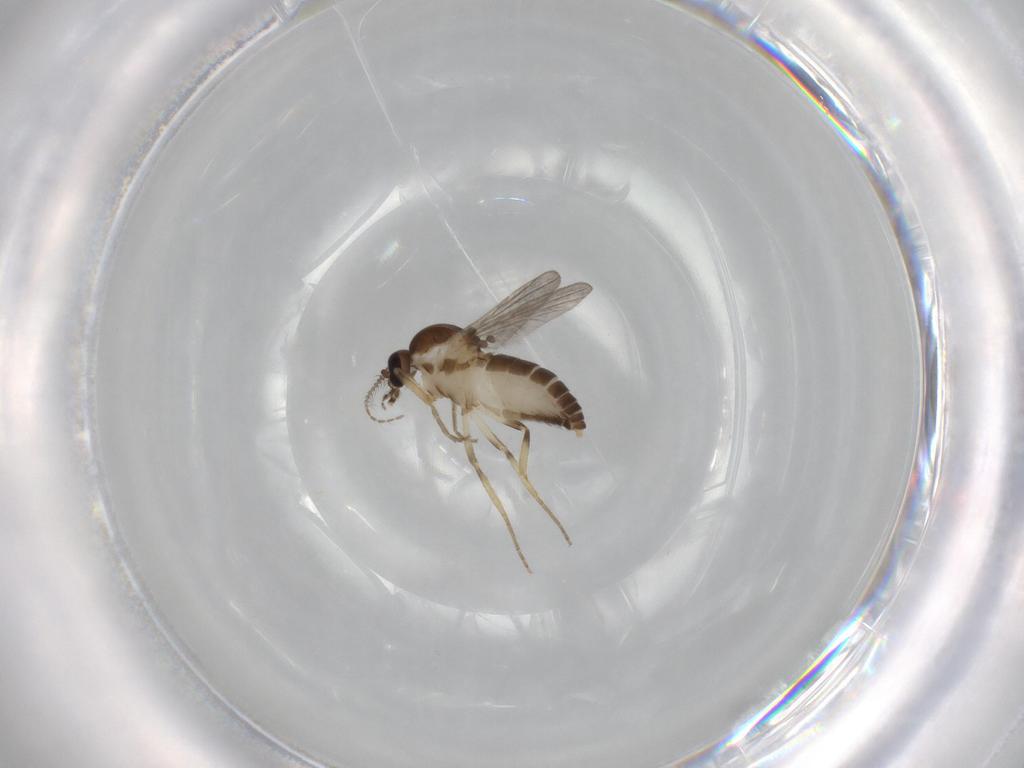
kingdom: Animalia
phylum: Arthropoda
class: Insecta
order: Diptera
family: Ceratopogonidae
